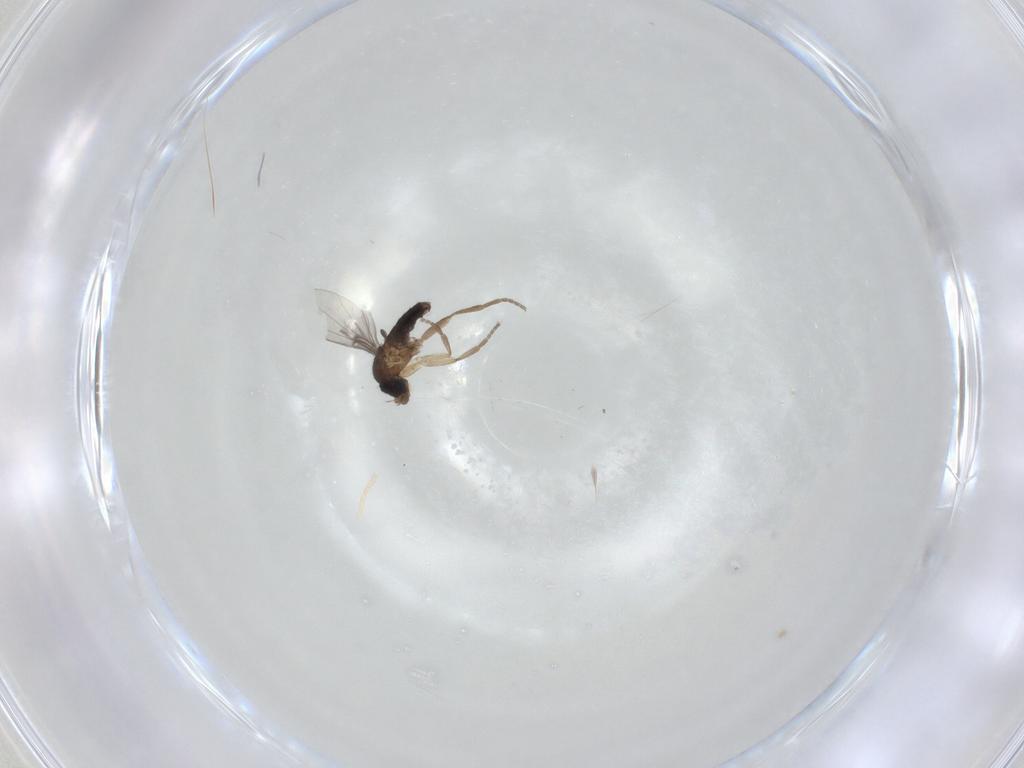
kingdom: Animalia
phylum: Arthropoda
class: Insecta
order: Diptera
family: Phoridae
